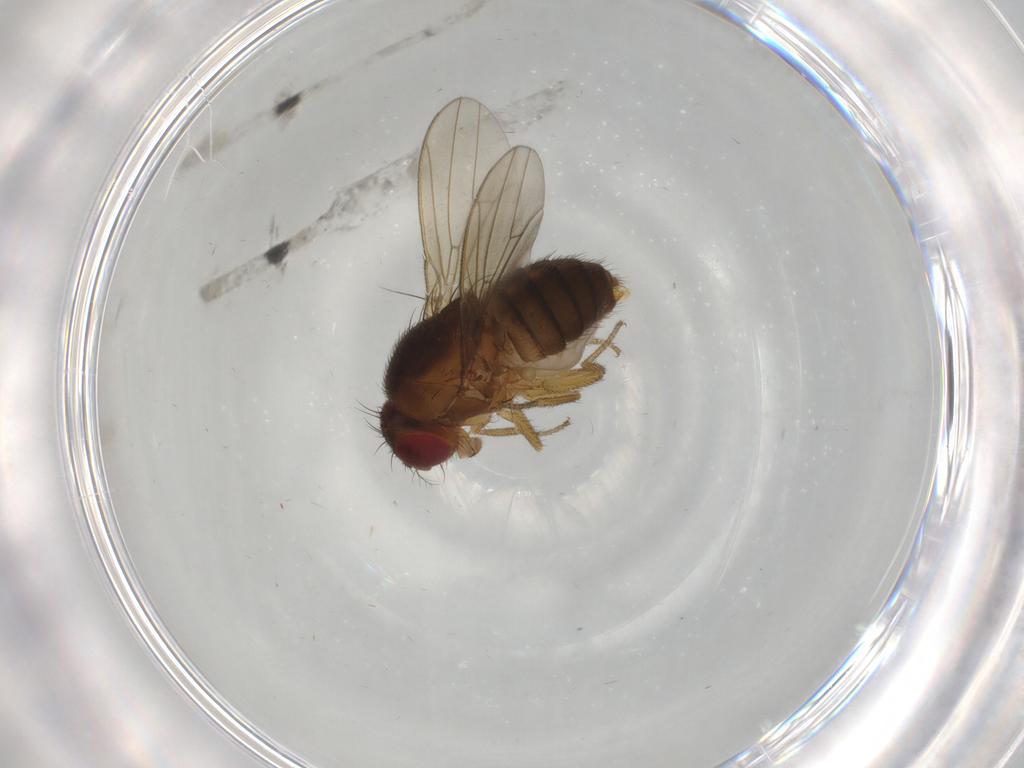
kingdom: Animalia
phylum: Arthropoda
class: Insecta
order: Diptera
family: Drosophilidae
